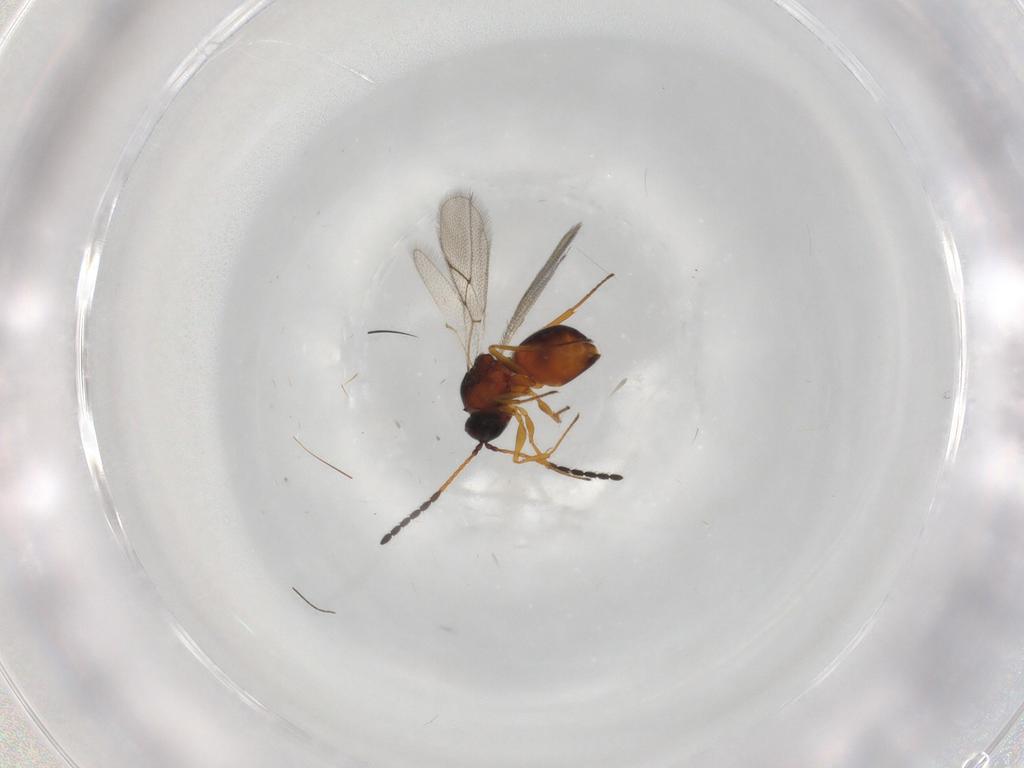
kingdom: Animalia
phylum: Arthropoda
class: Insecta
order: Hymenoptera
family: Figitidae
